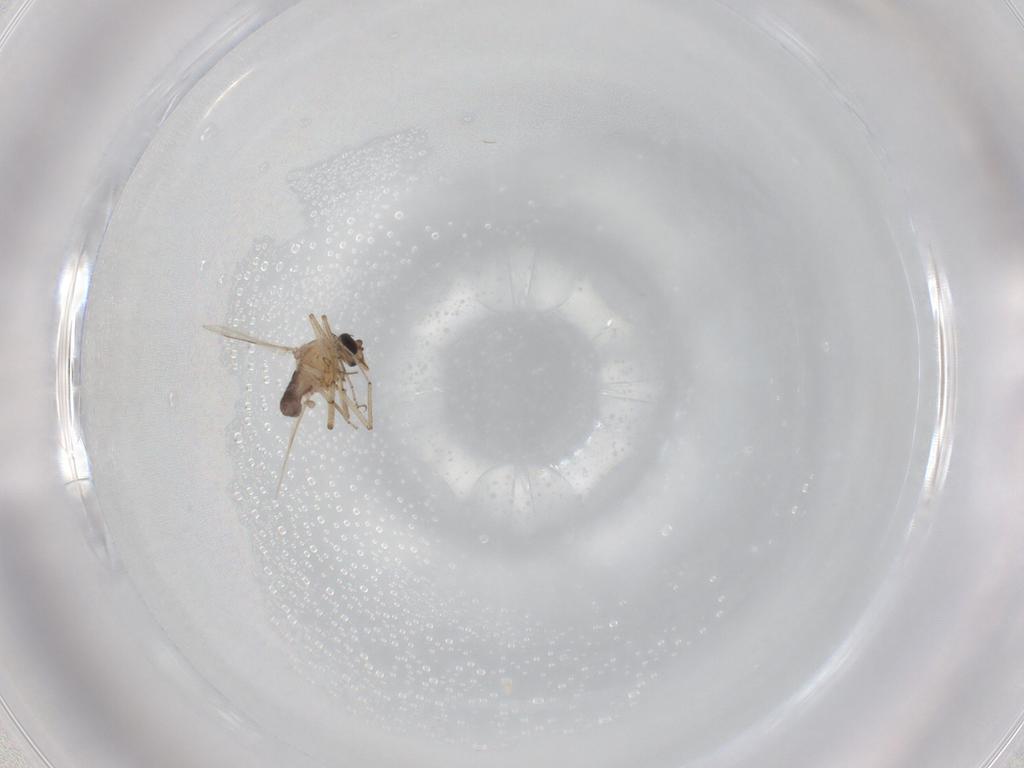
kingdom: Animalia
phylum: Arthropoda
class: Insecta
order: Diptera
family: Ceratopogonidae
